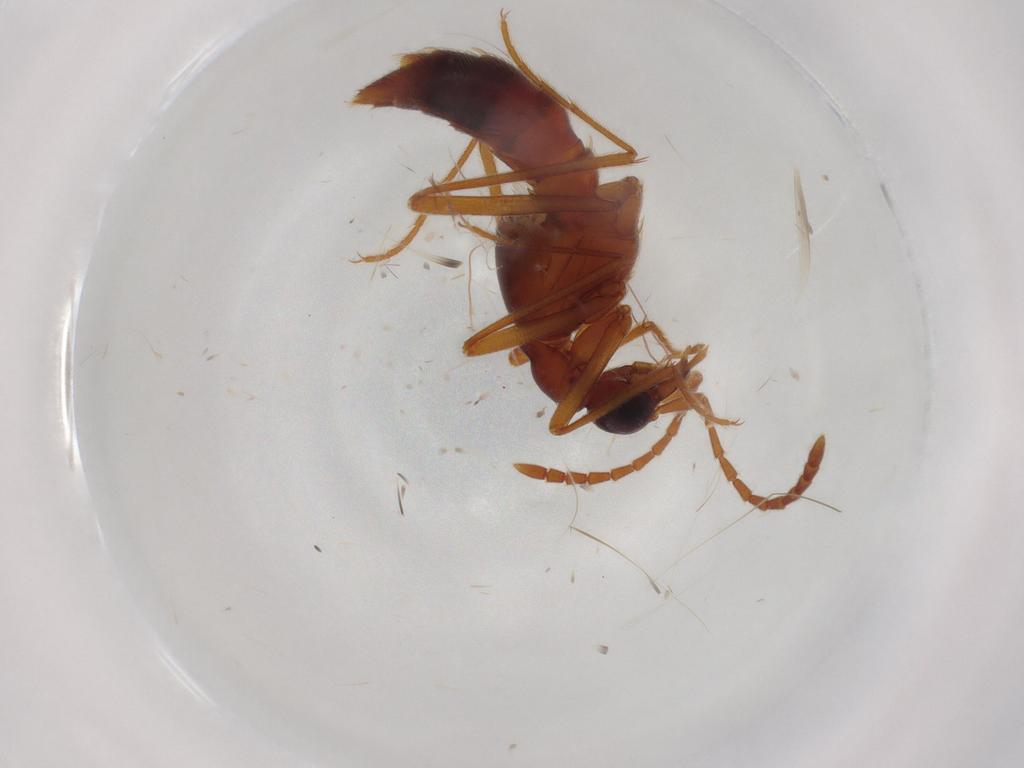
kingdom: Animalia
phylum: Arthropoda
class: Insecta
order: Coleoptera
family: Staphylinidae
